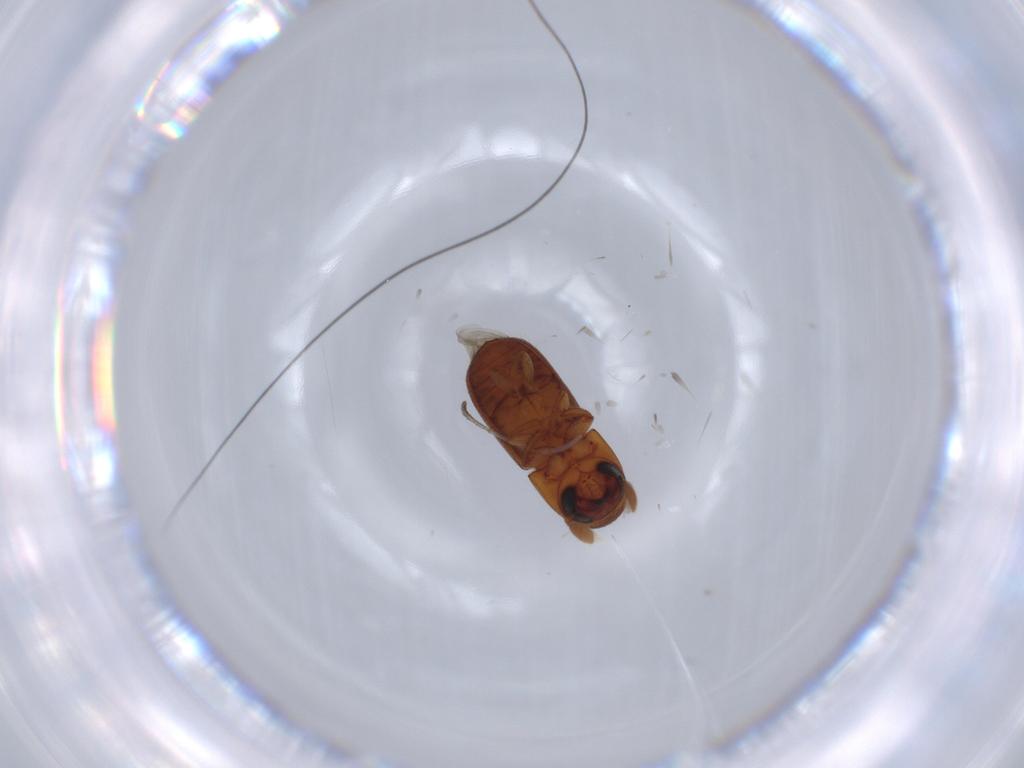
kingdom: Animalia
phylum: Arthropoda
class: Insecta
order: Coleoptera
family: Curculionidae
